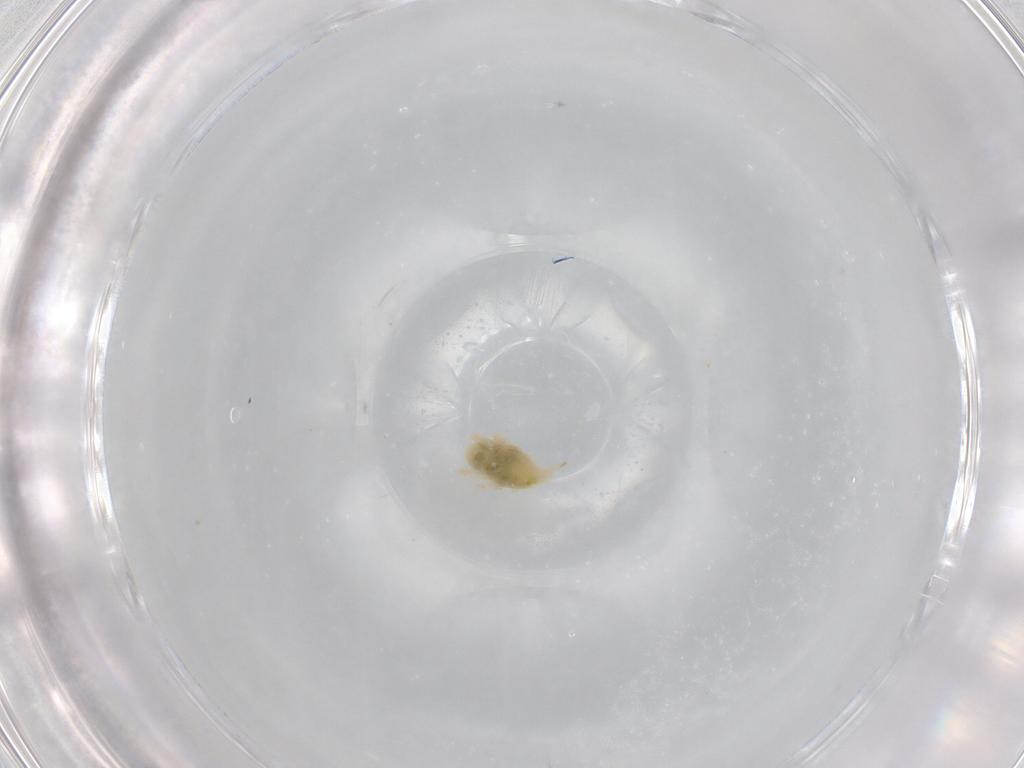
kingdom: Animalia
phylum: Arthropoda
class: Arachnida
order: Trombidiformes
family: Bdellidae
